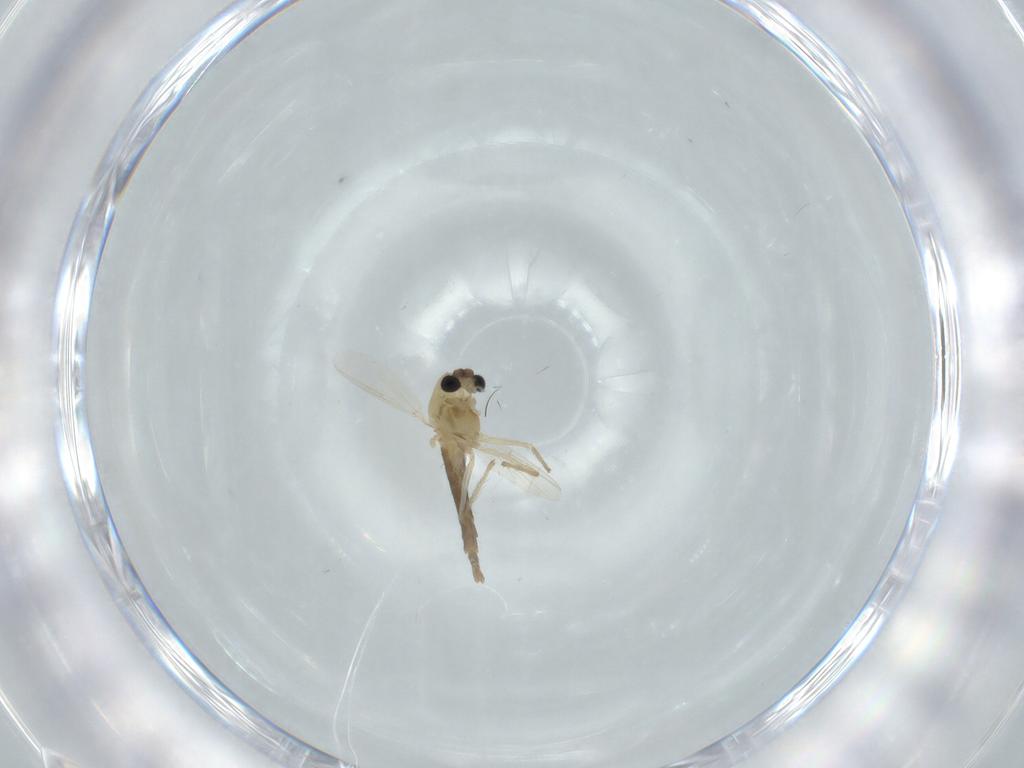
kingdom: Animalia
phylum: Arthropoda
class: Insecta
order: Diptera
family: Chironomidae
